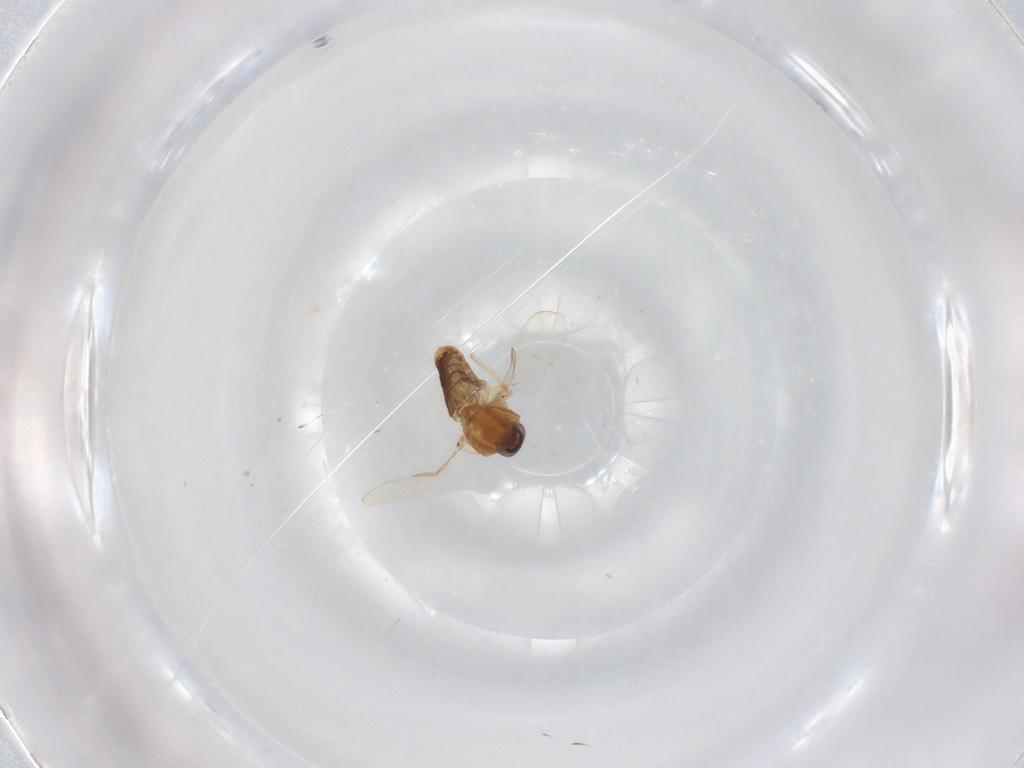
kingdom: Animalia
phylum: Arthropoda
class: Insecta
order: Diptera
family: Ceratopogonidae
